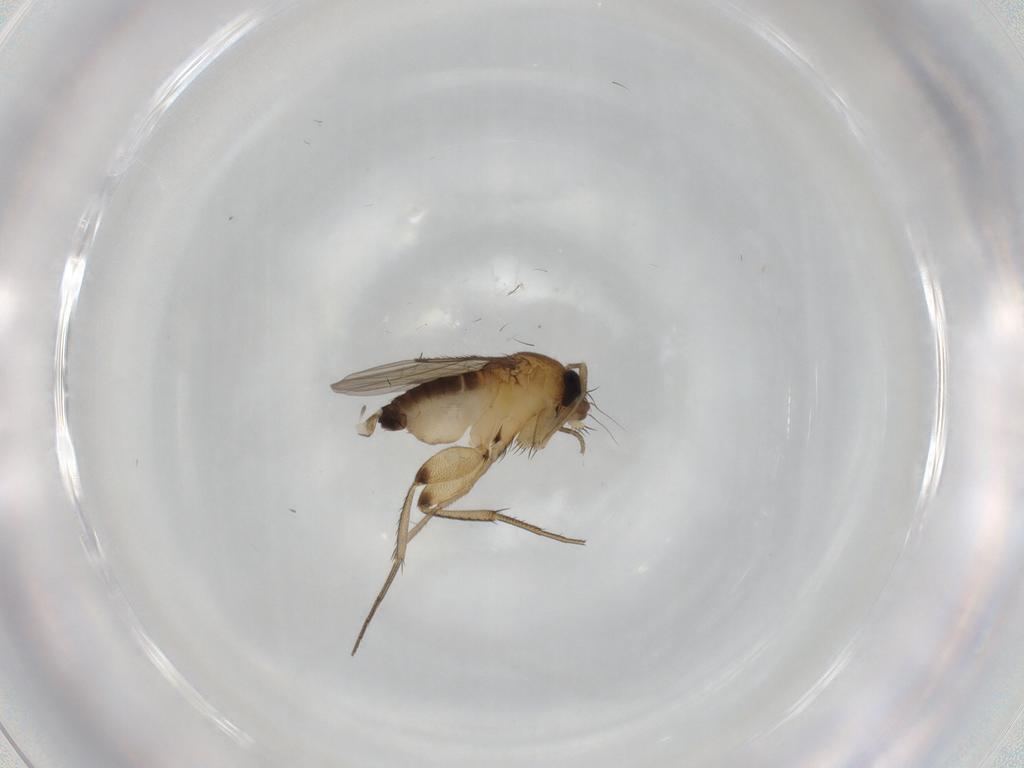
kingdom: Animalia
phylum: Arthropoda
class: Insecta
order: Diptera
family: Phoridae
